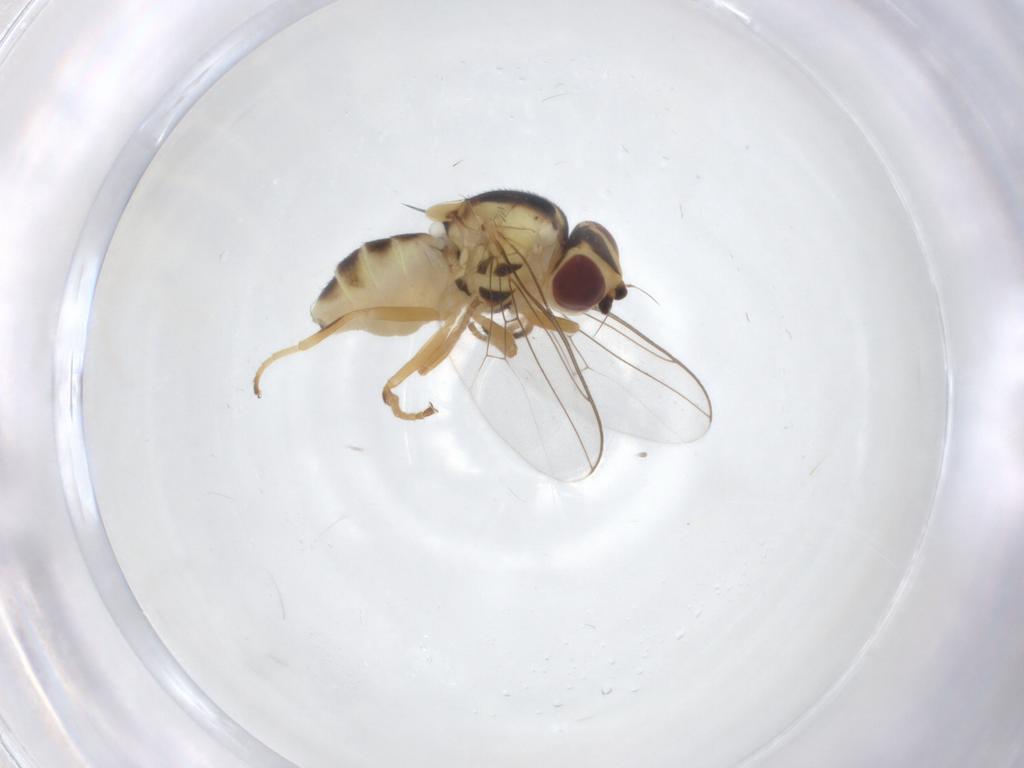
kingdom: Animalia
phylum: Arthropoda
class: Insecta
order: Diptera
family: Chloropidae
